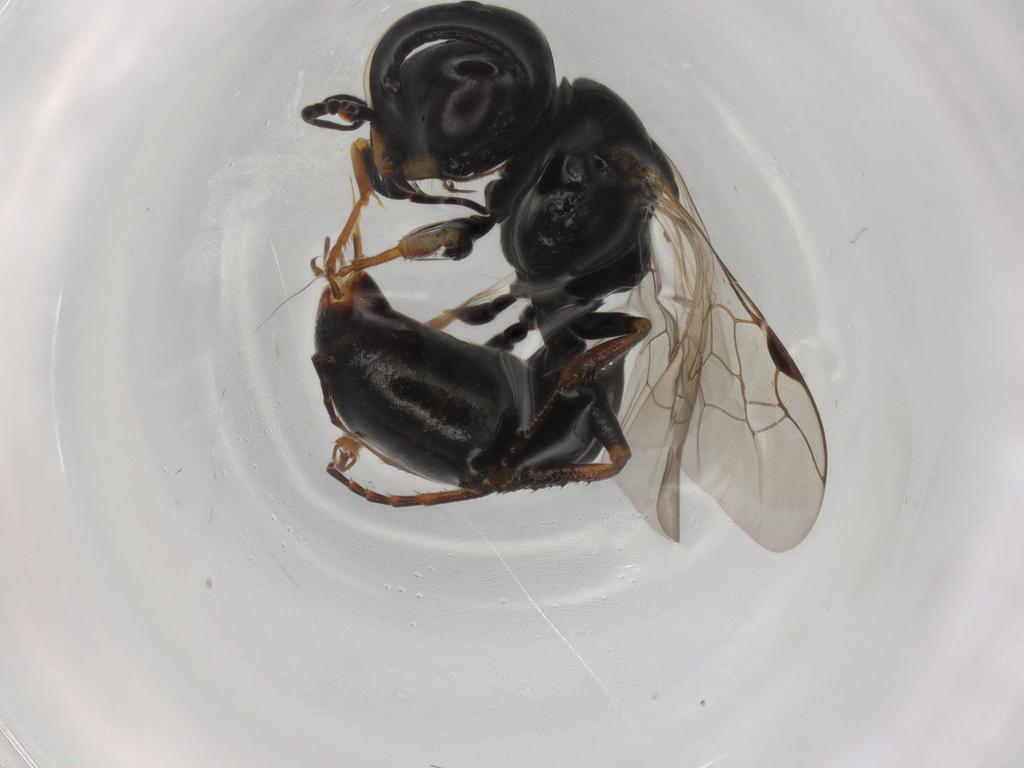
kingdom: Animalia
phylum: Arthropoda
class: Insecta
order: Hymenoptera
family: Crabronidae
